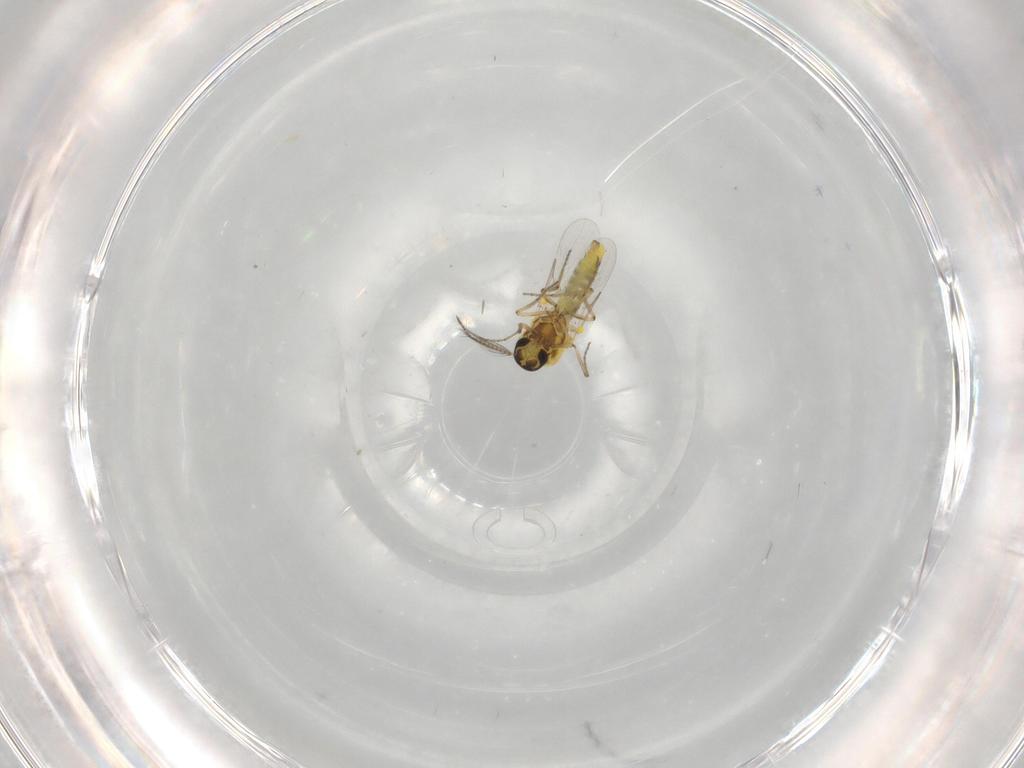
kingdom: Animalia
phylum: Arthropoda
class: Insecta
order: Diptera
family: Ceratopogonidae
